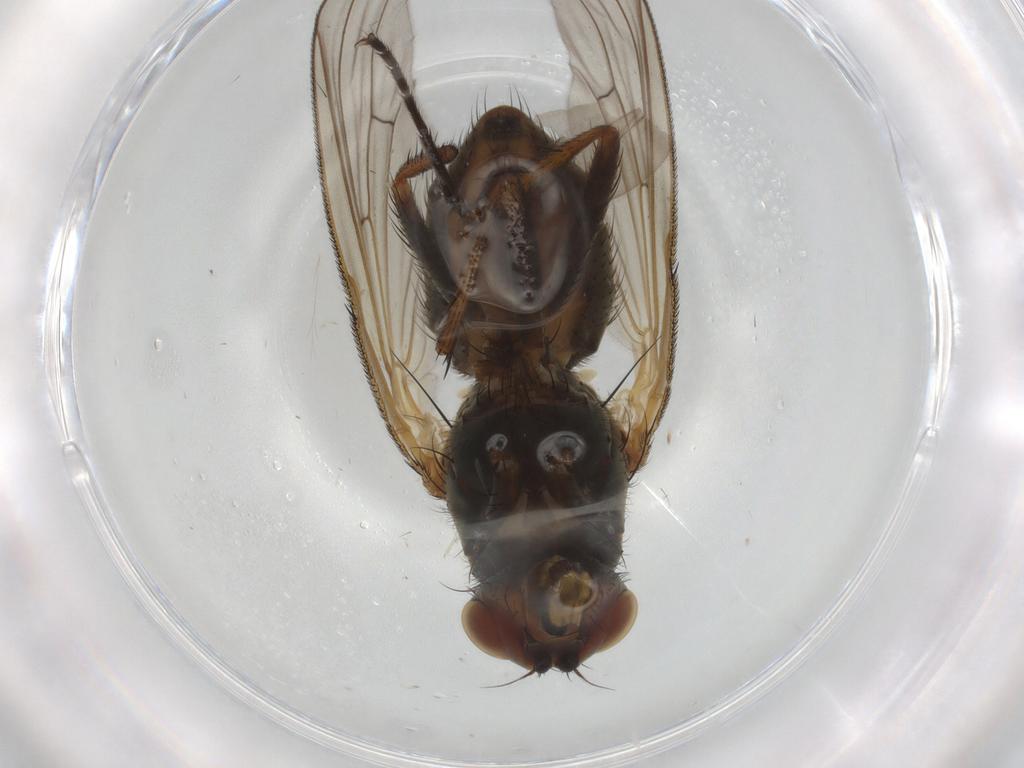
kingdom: Animalia
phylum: Arthropoda
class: Insecta
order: Diptera
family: Anthomyiidae
